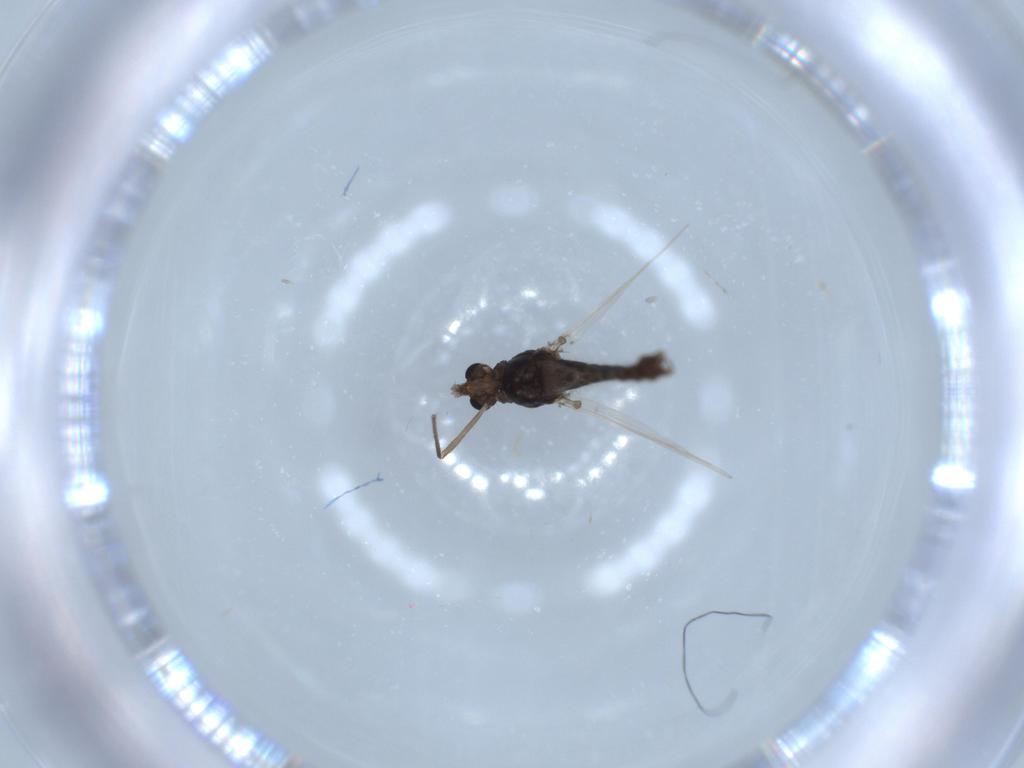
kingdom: Animalia
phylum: Arthropoda
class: Insecta
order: Diptera
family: Chironomidae
